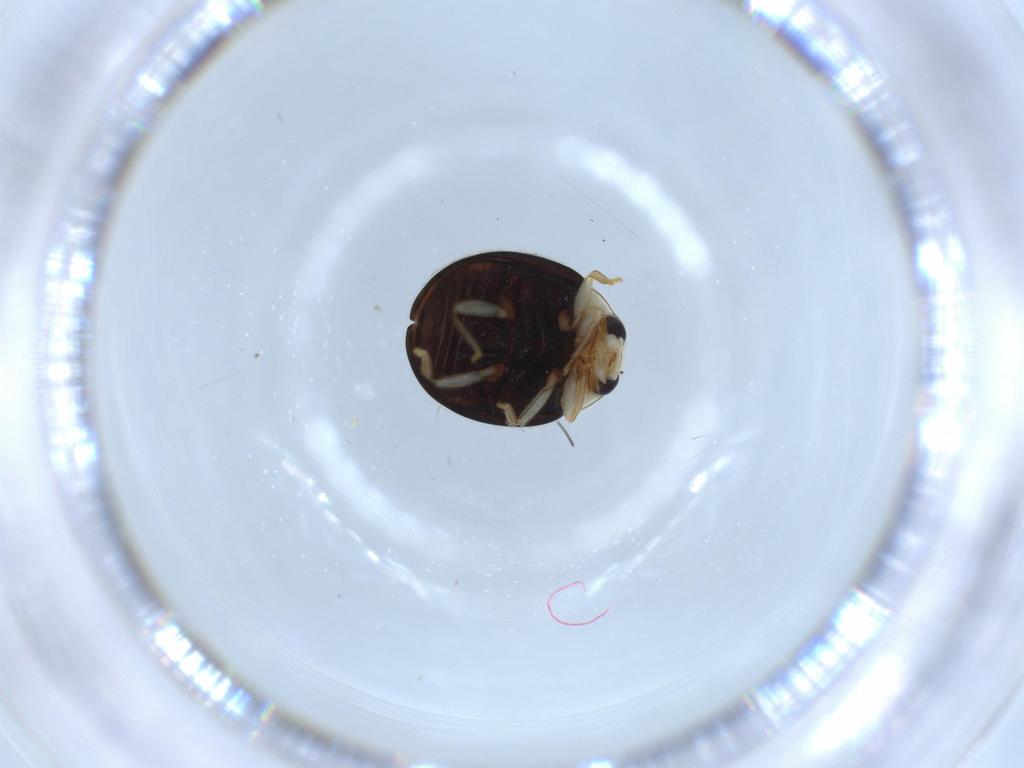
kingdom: Animalia
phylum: Arthropoda
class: Insecta
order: Coleoptera
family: Coccinellidae
